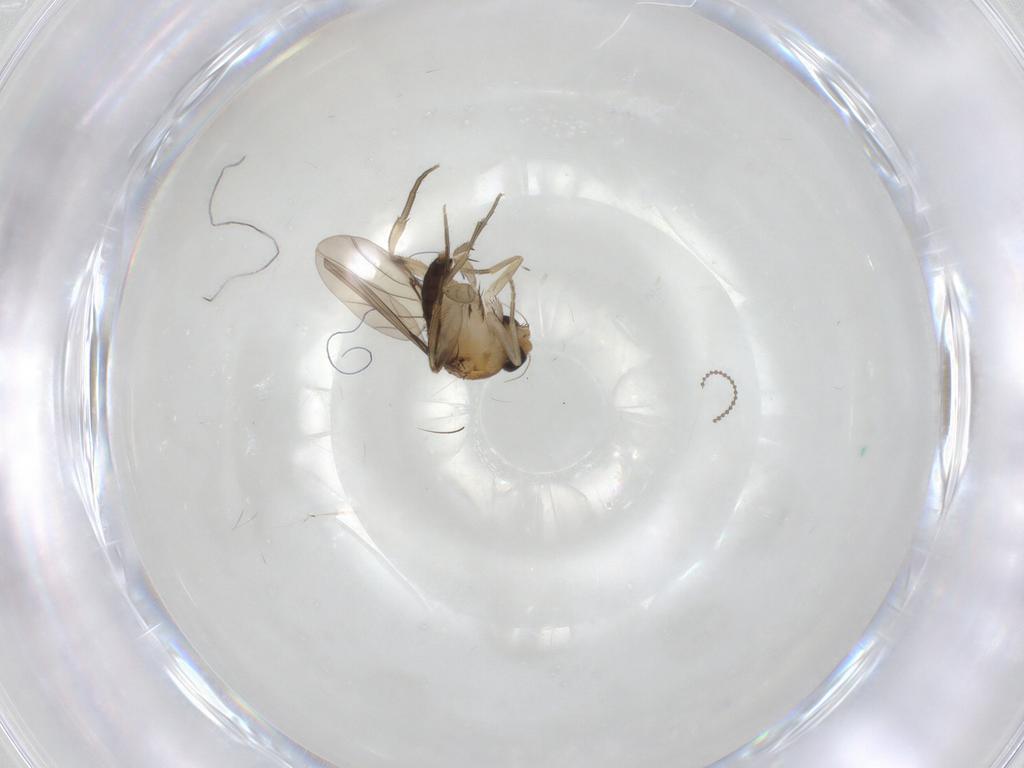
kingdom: Animalia
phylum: Arthropoda
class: Insecta
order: Diptera
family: Phoridae
